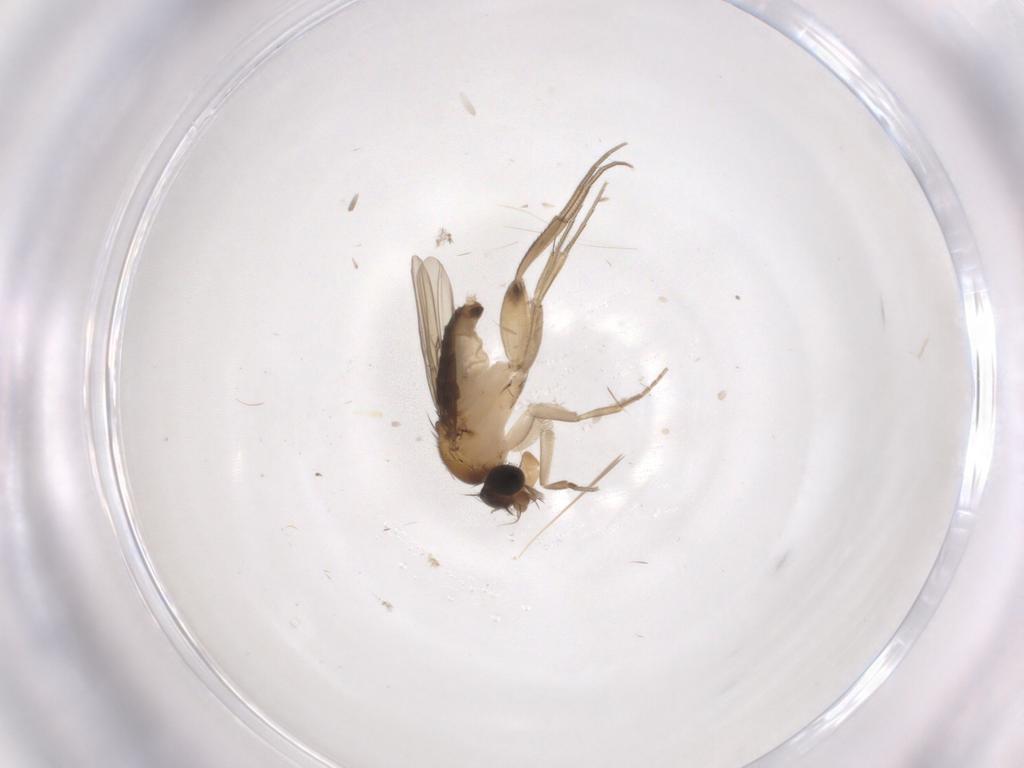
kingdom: Animalia
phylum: Arthropoda
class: Insecta
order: Diptera
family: Phoridae
